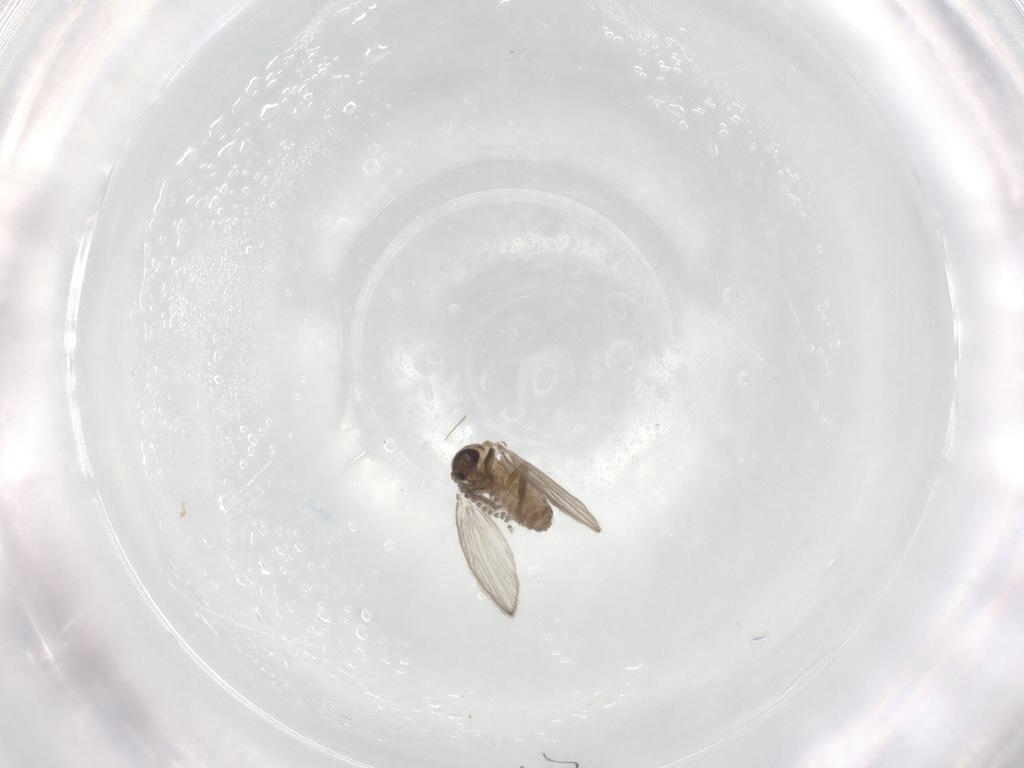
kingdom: Animalia
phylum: Arthropoda
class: Insecta
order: Diptera
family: Psychodidae
